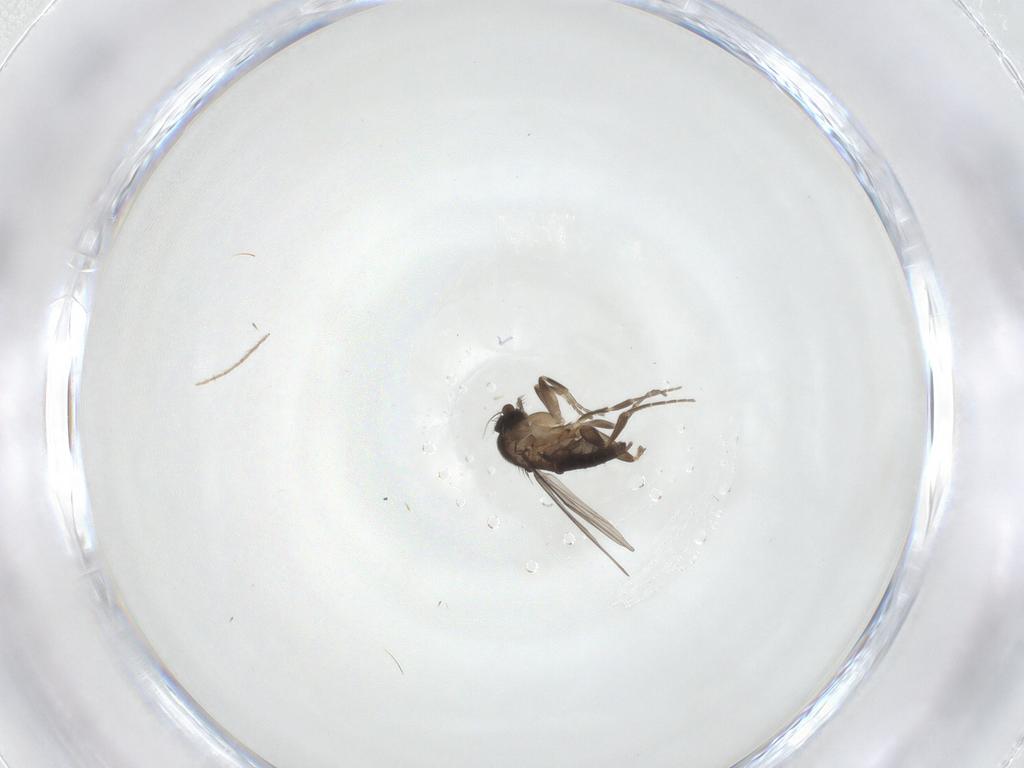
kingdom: Animalia
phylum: Arthropoda
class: Insecta
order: Diptera
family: Chironomidae
